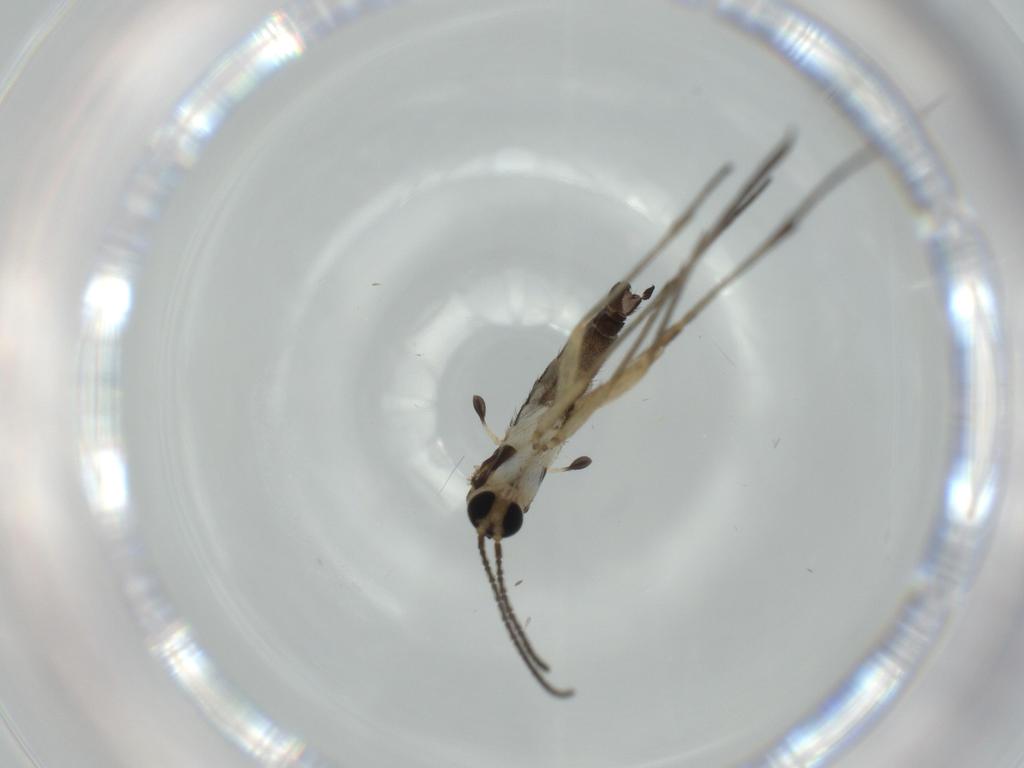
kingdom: Animalia
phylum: Arthropoda
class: Insecta
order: Diptera
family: Sciaridae
